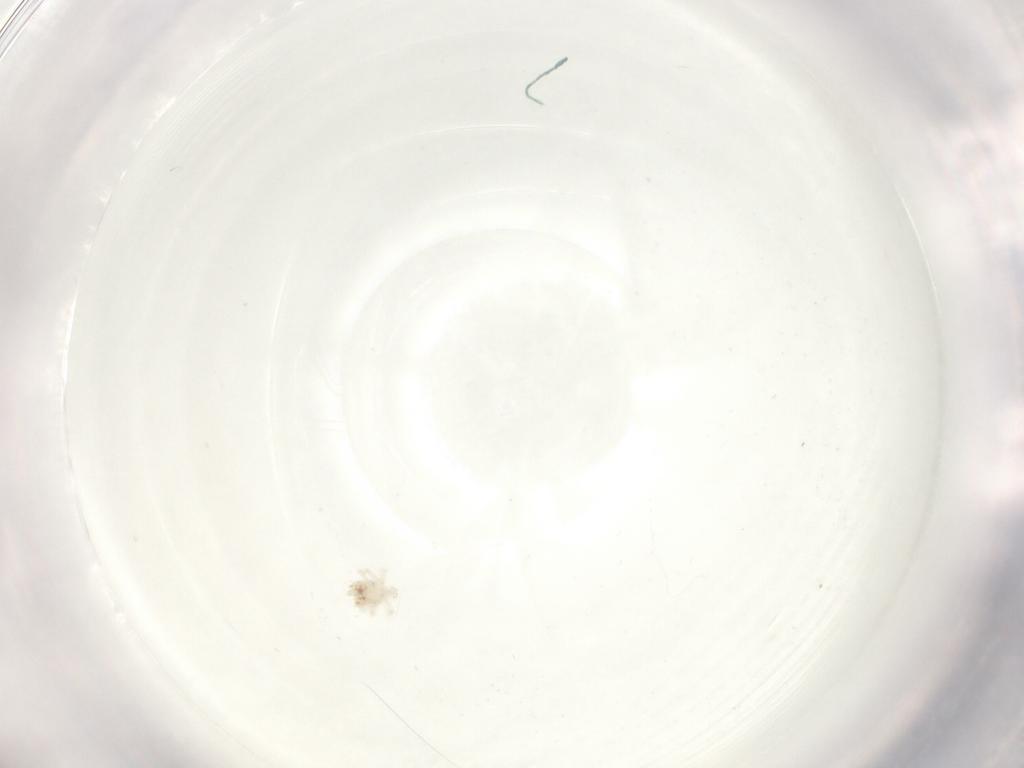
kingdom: Animalia
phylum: Arthropoda
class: Arachnida
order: Trombidiformes
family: Anystidae
